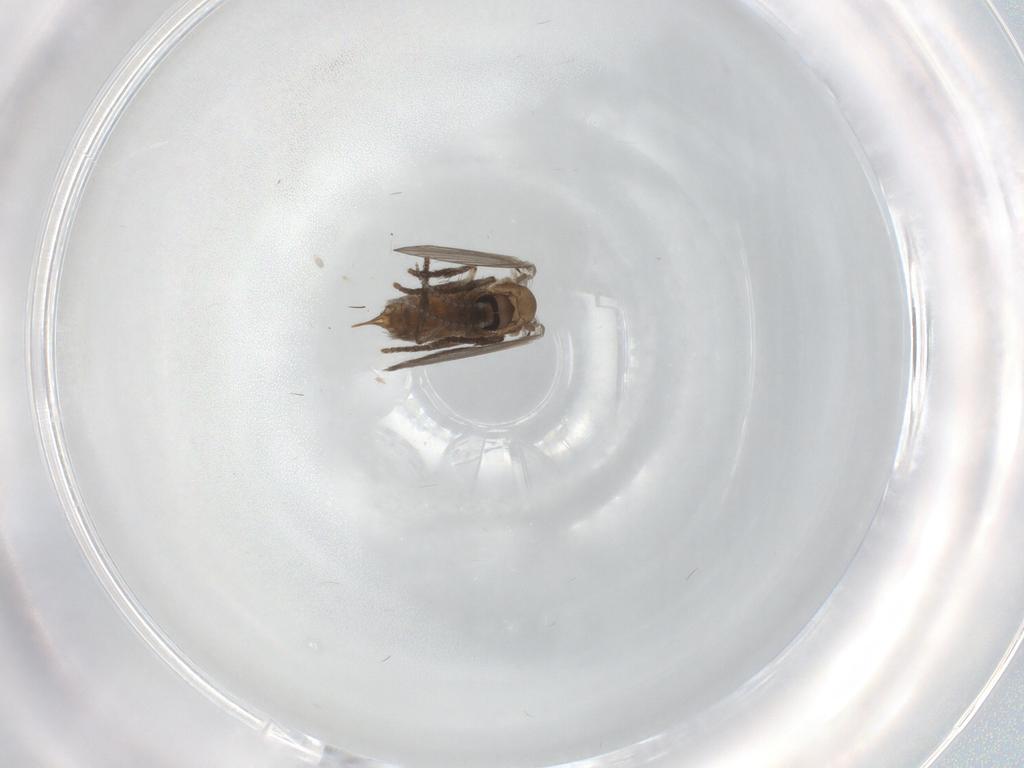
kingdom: Animalia
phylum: Arthropoda
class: Insecta
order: Diptera
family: Psychodidae
